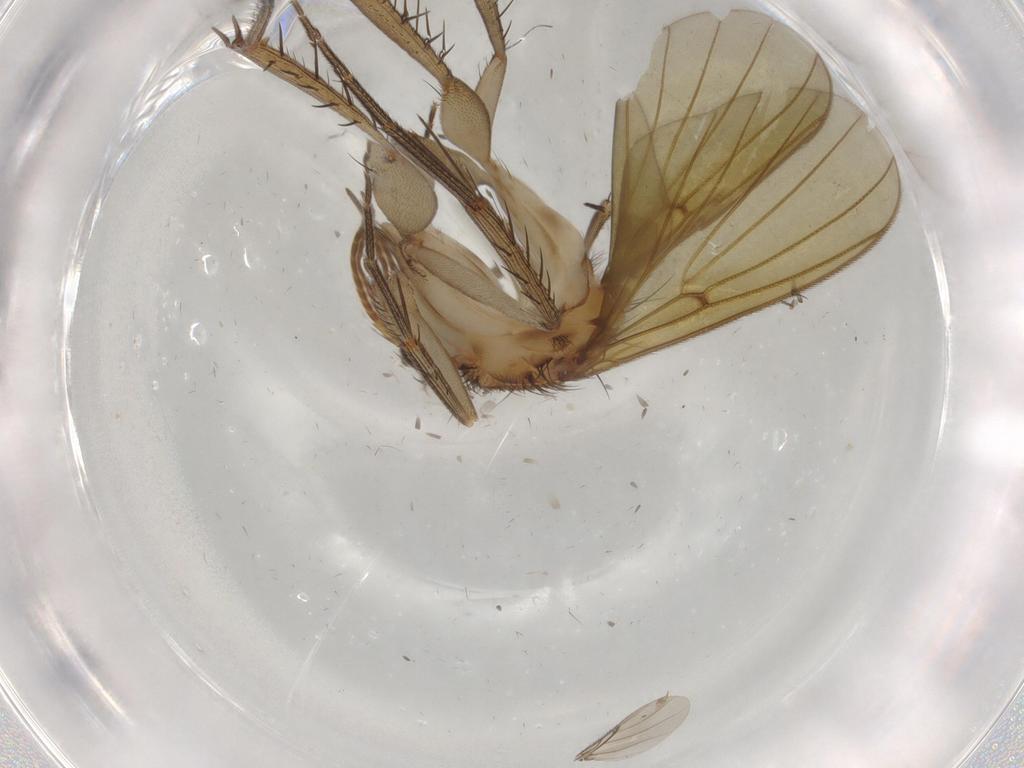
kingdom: Animalia
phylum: Arthropoda
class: Insecta
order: Diptera
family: Mycetophilidae
